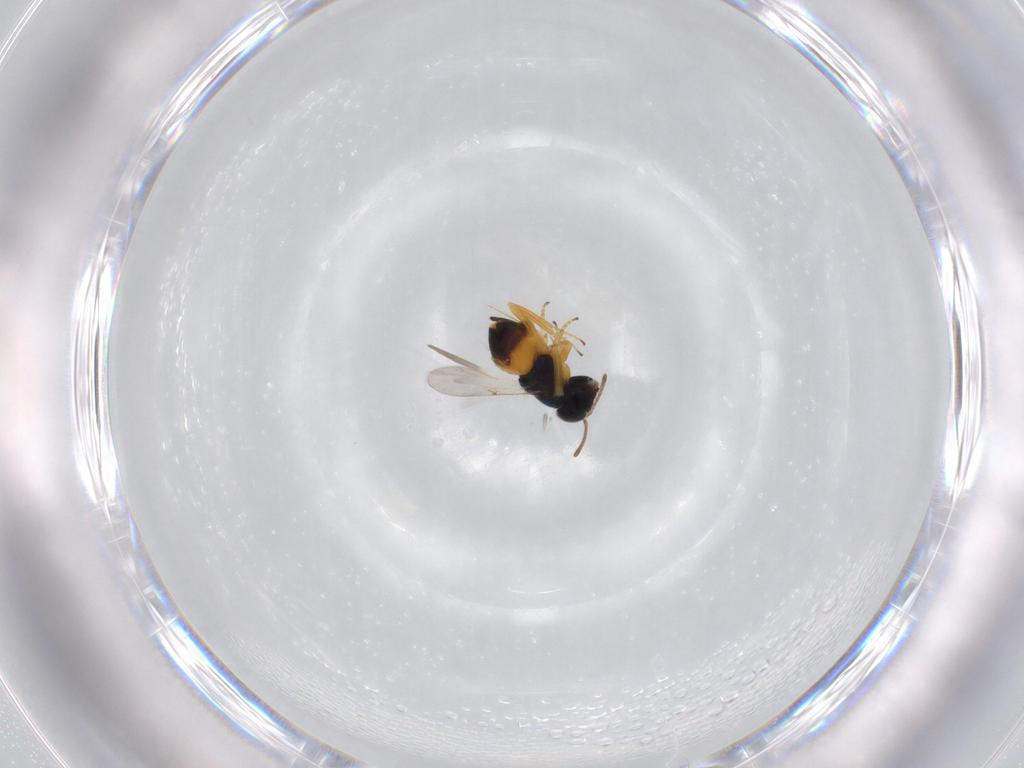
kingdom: Animalia
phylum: Arthropoda
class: Insecta
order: Hymenoptera
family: Encyrtidae
